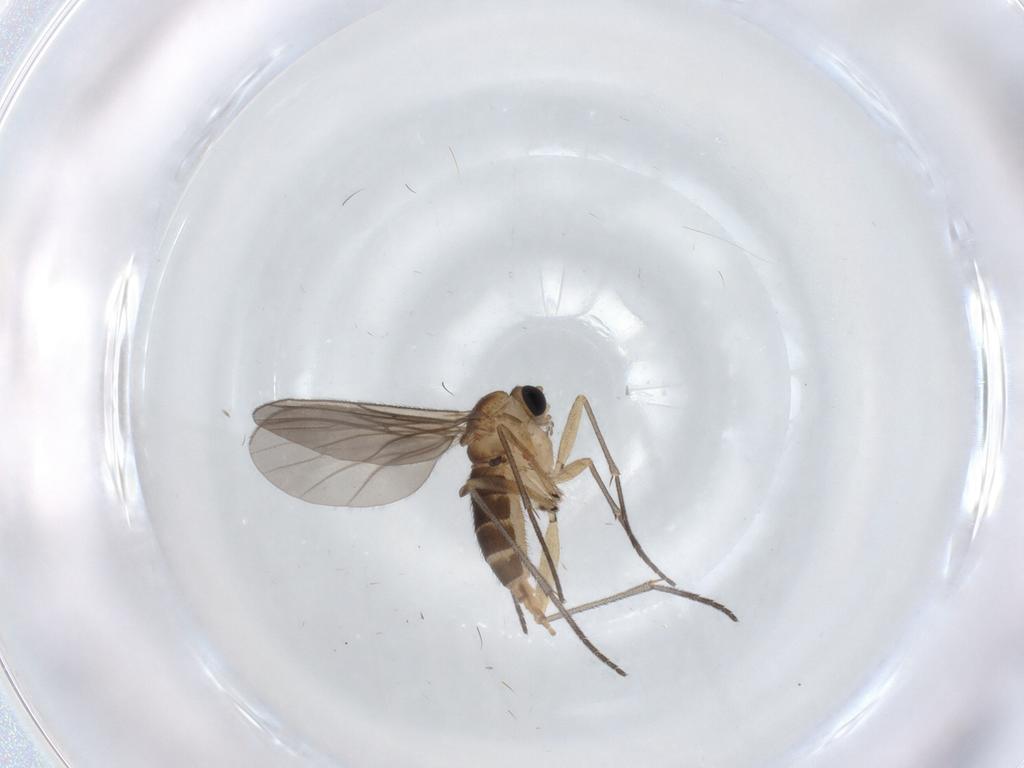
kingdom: Animalia
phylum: Arthropoda
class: Insecta
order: Diptera
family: Sciaridae
